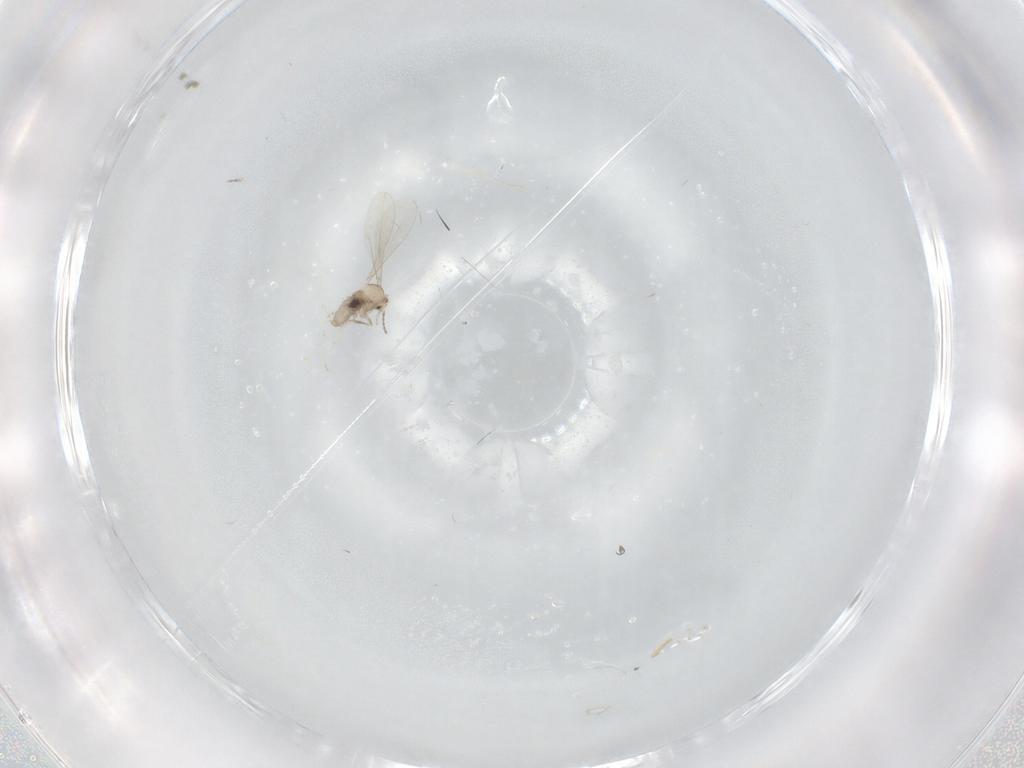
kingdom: Animalia
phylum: Arthropoda
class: Insecta
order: Diptera
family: Cecidomyiidae
